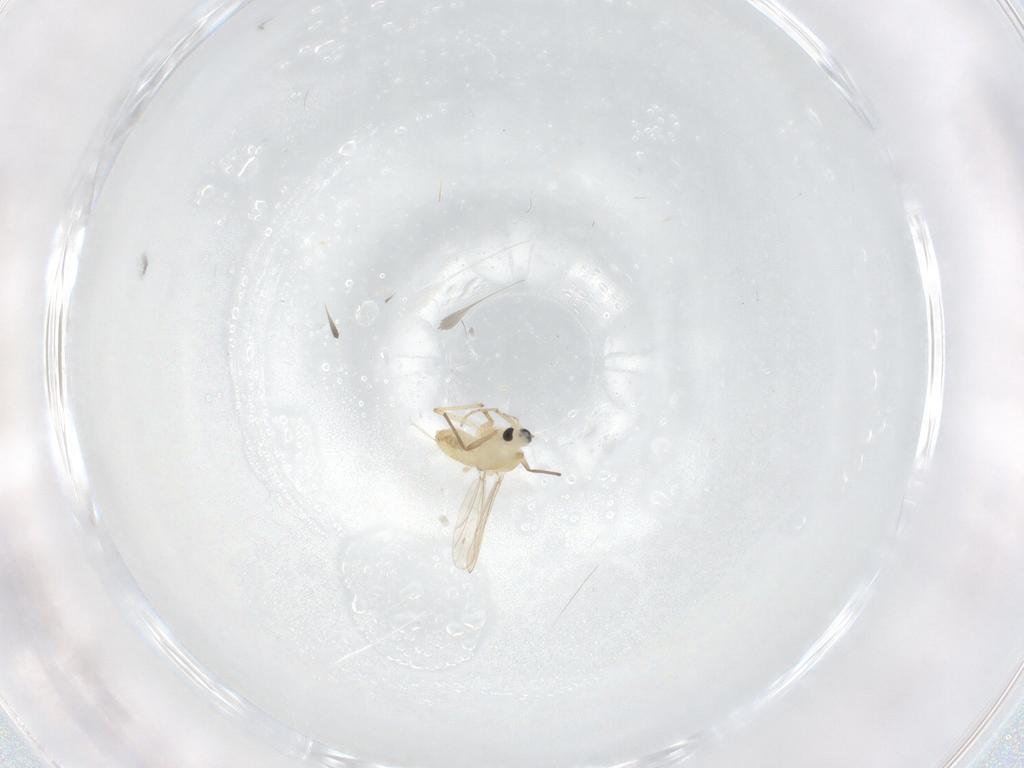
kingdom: Animalia
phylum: Arthropoda
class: Insecta
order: Diptera
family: Chironomidae
